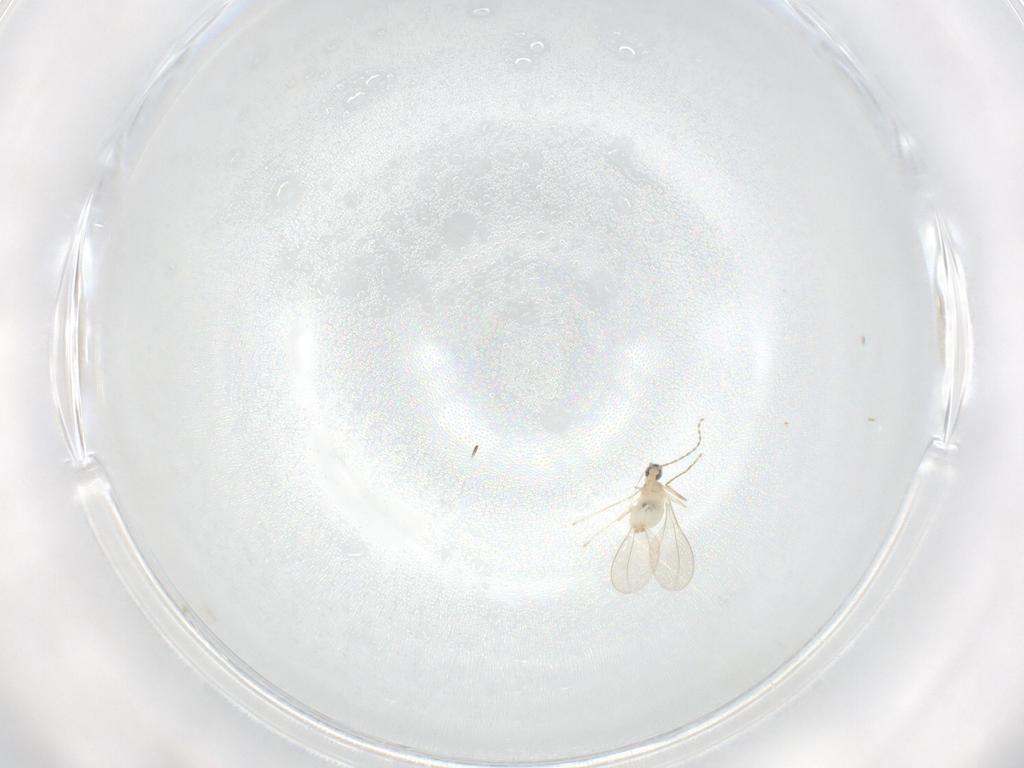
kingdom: Animalia
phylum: Arthropoda
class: Insecta
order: Diptera
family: Cecidomyiidae
